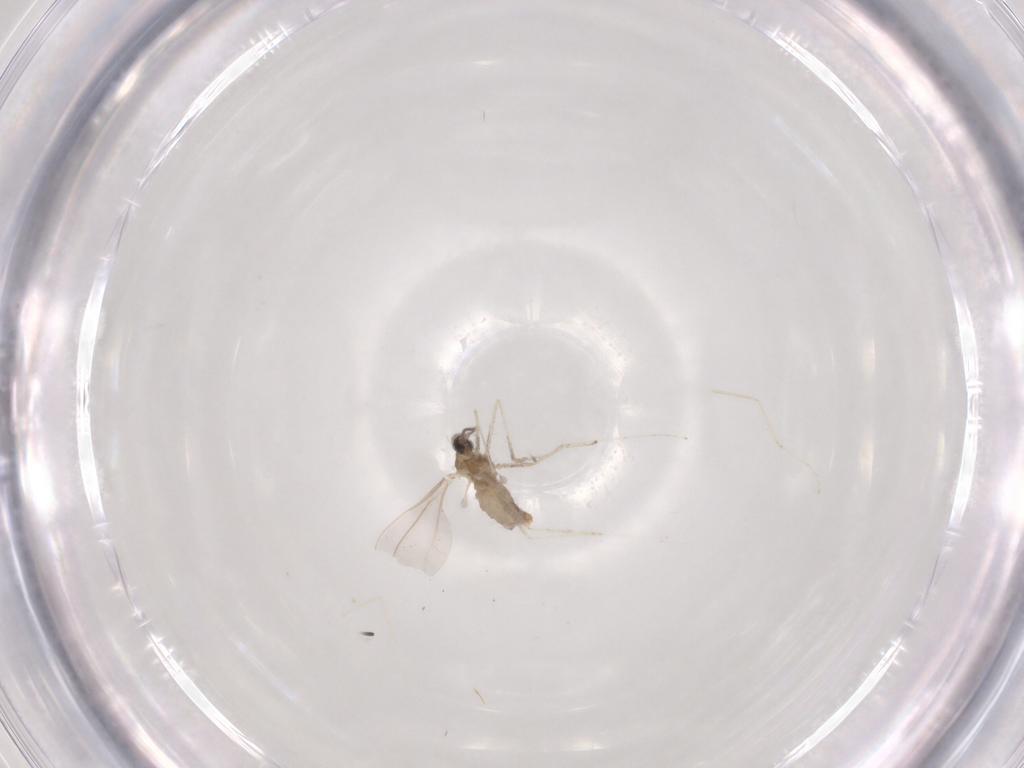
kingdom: Animalia
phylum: Arthropoda
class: Insecta
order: Diptera
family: Cecidomyiidae
